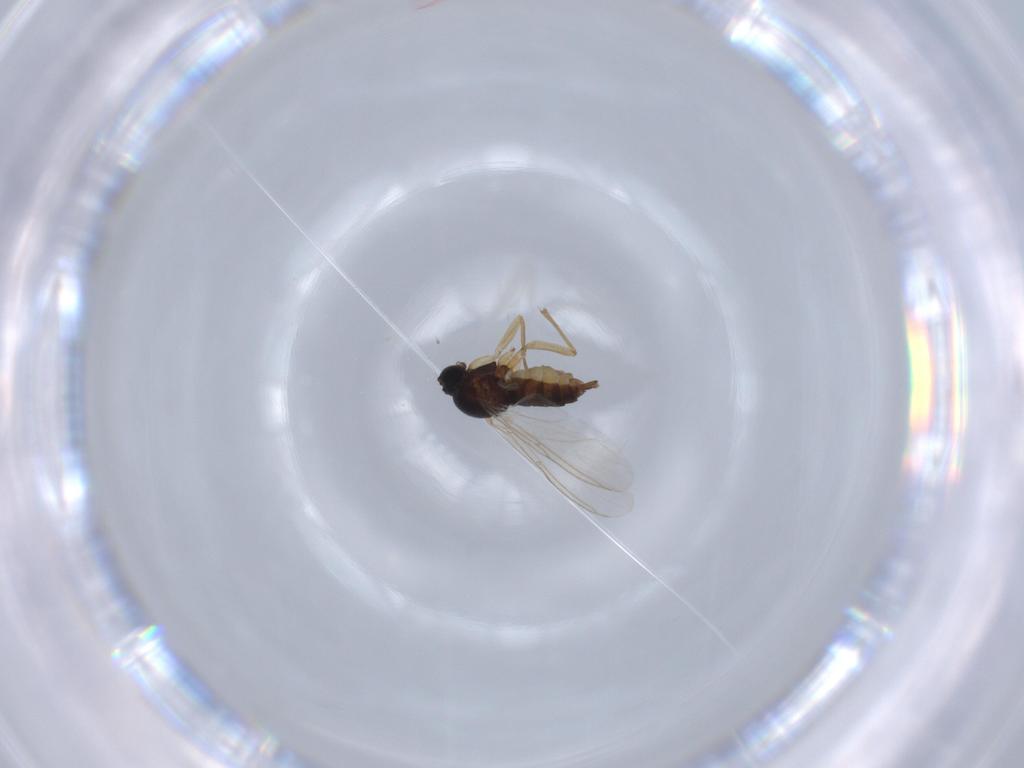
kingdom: Animalia
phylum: Arthropoda
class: Insecta
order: Diptera
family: Sciaridae
